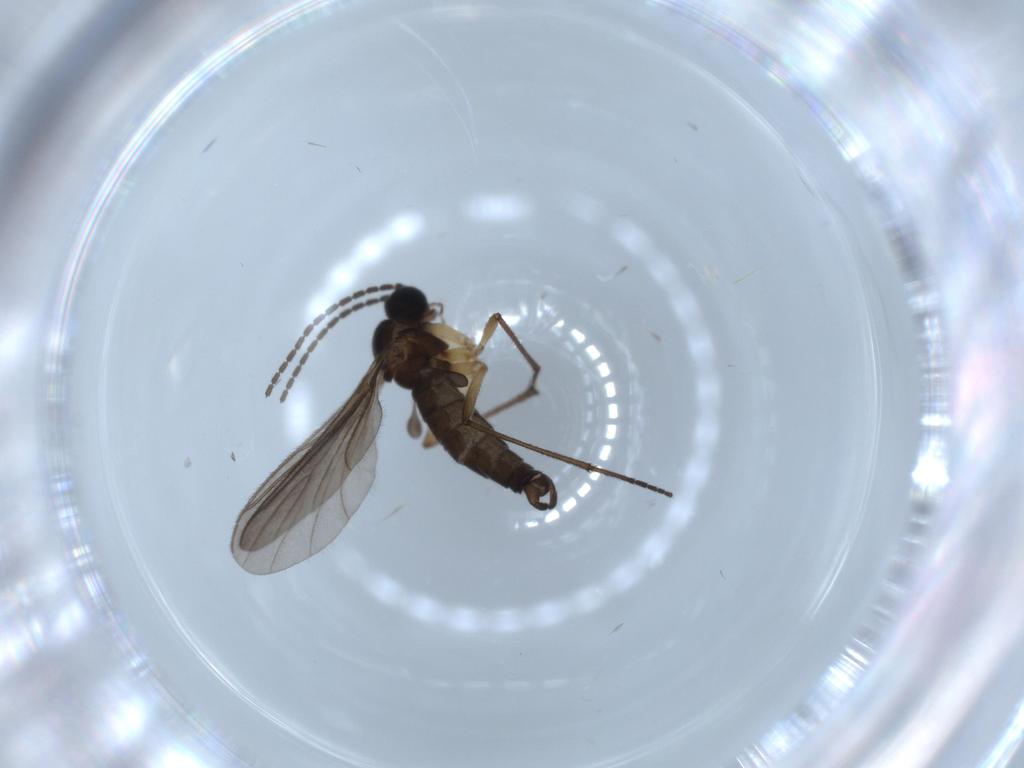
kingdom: Animalia
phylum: Arthropoda
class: Insecta
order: Diptera
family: Sciaridae
